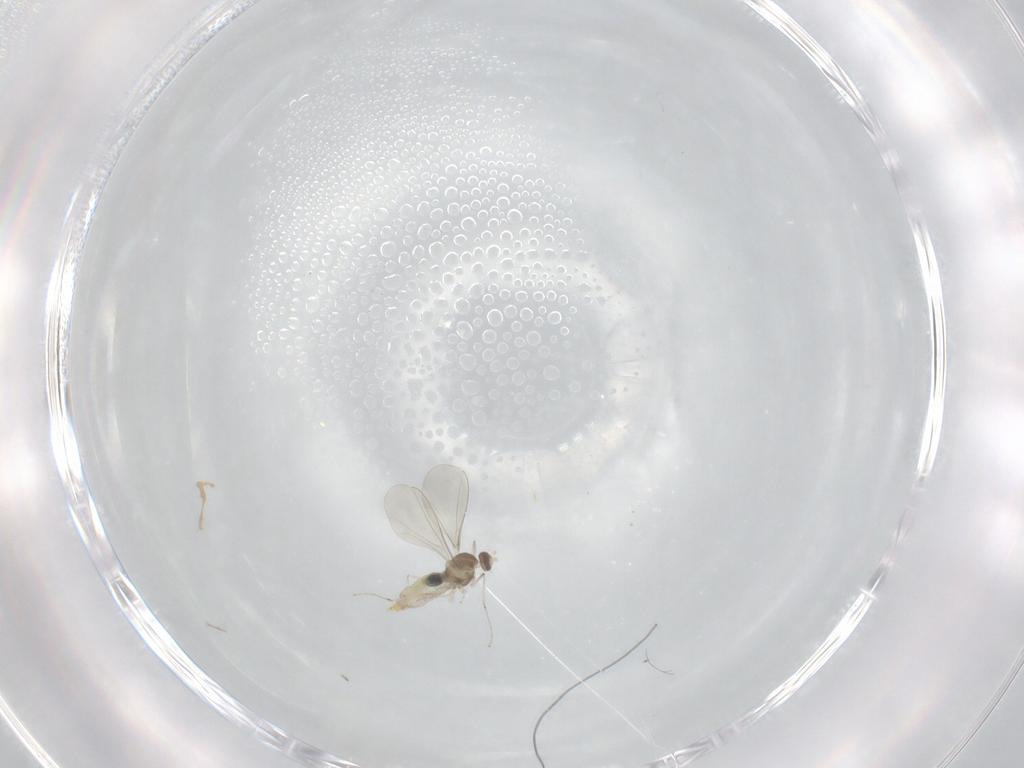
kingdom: Animalia
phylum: Arthropoda
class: Insecta
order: Diptera
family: Cecidomyiidae
